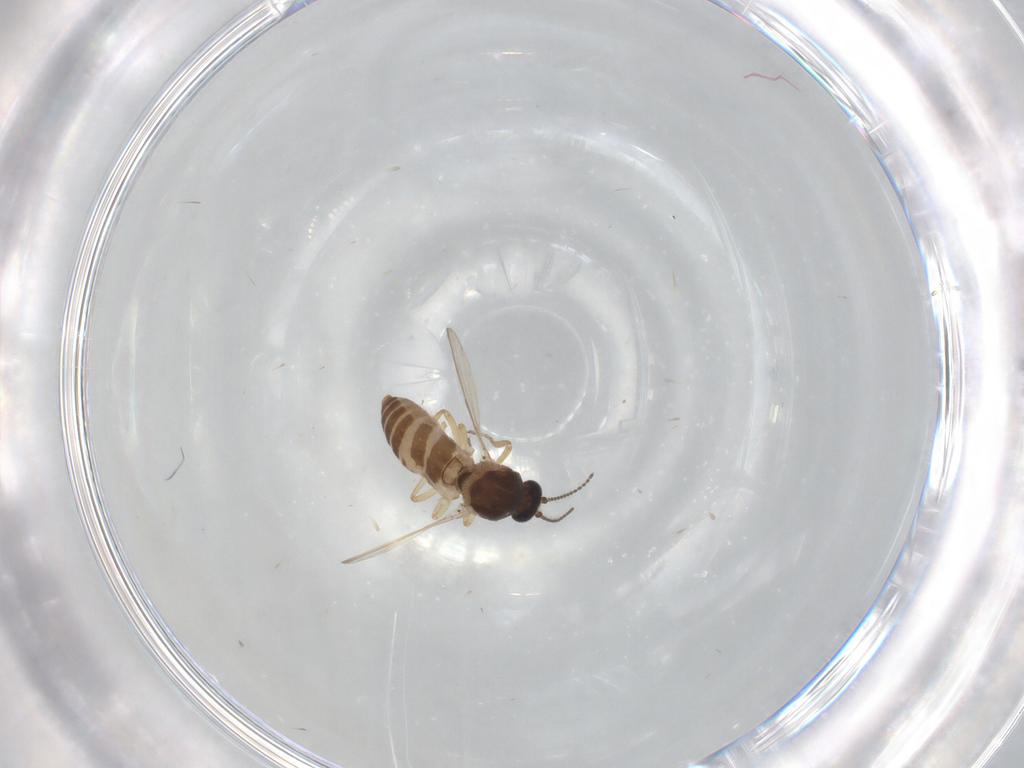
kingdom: Animalia
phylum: Arthropoda
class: Insecta
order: Diptera
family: Ceratopogonidae
